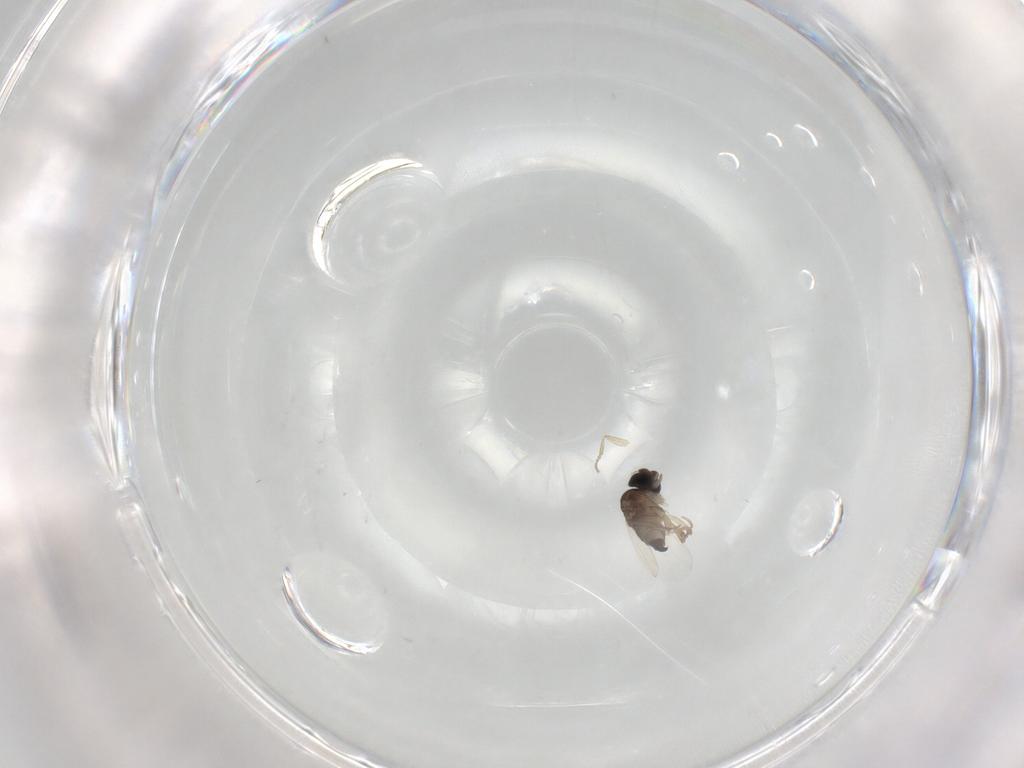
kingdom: Animalia
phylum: Arthropoda
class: Insecta
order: Diptera
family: Phoridae
